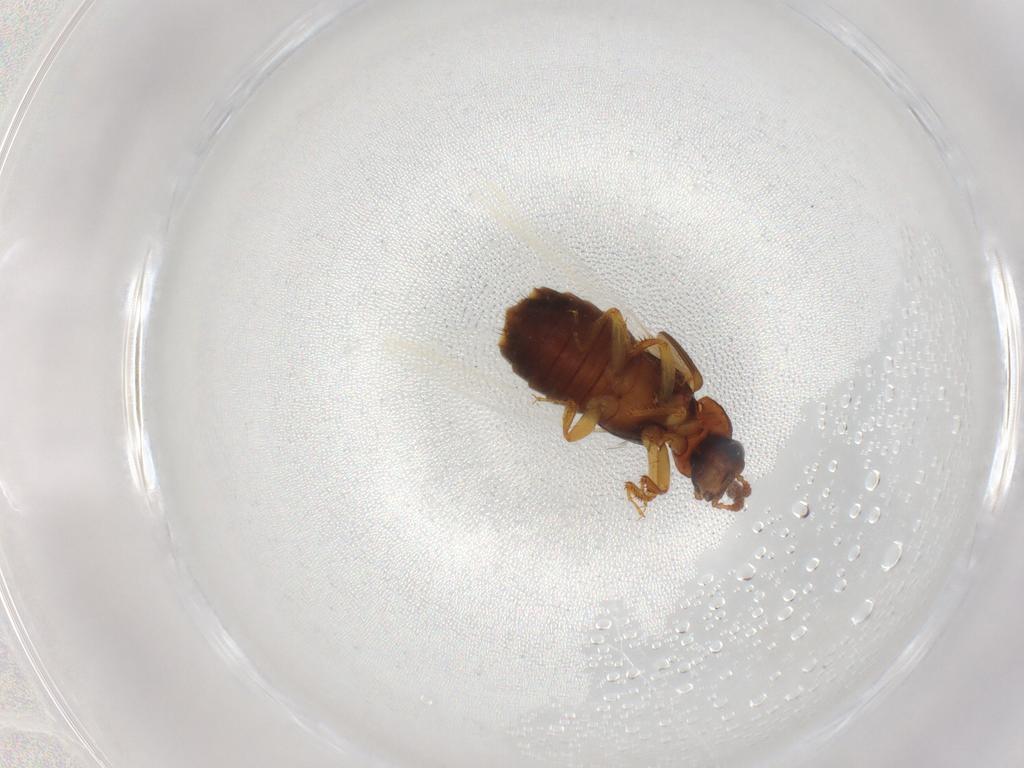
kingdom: Animalia
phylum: Arthropoda
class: Insecta
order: Coleoptera
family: Staphylinidae
